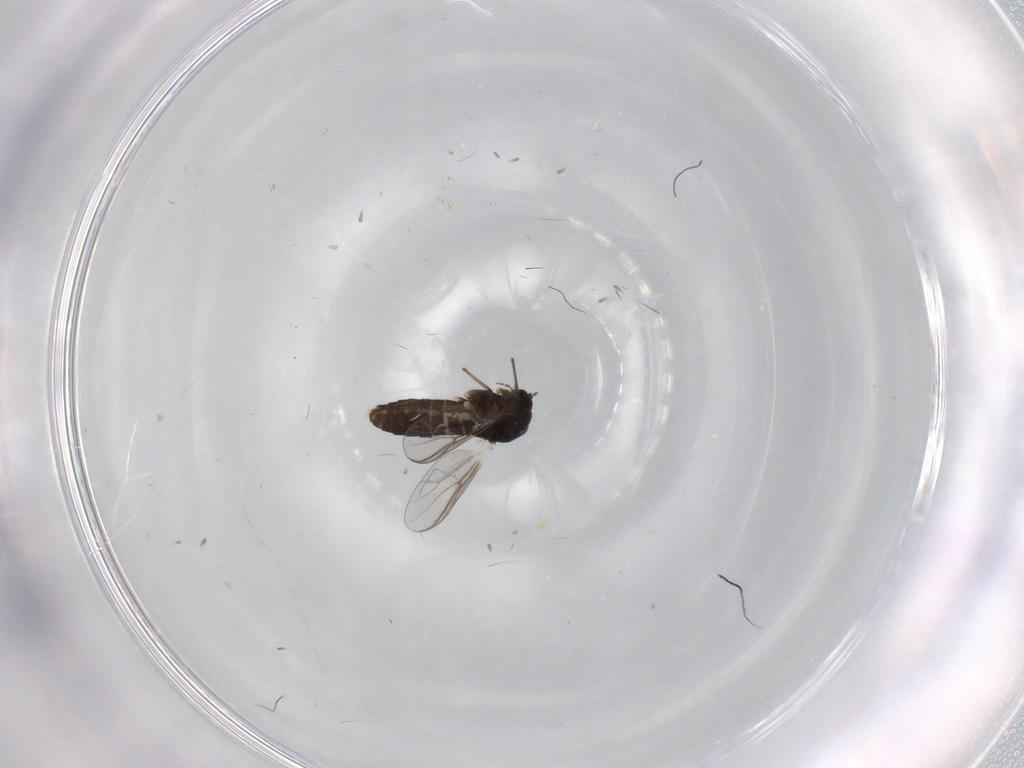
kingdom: Animalia
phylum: Arthropoda
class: Insecta
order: Diptera
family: Chironomidae
